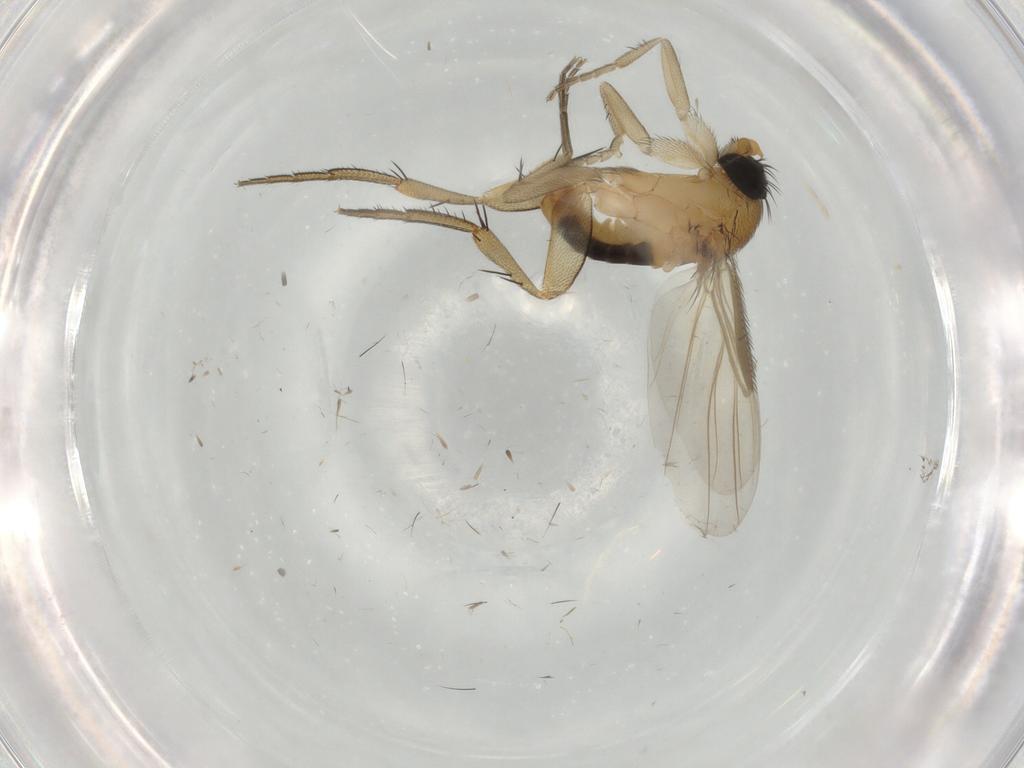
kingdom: Animalia
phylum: Arthropoda
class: Insecta
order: Diptera
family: Phoridae
